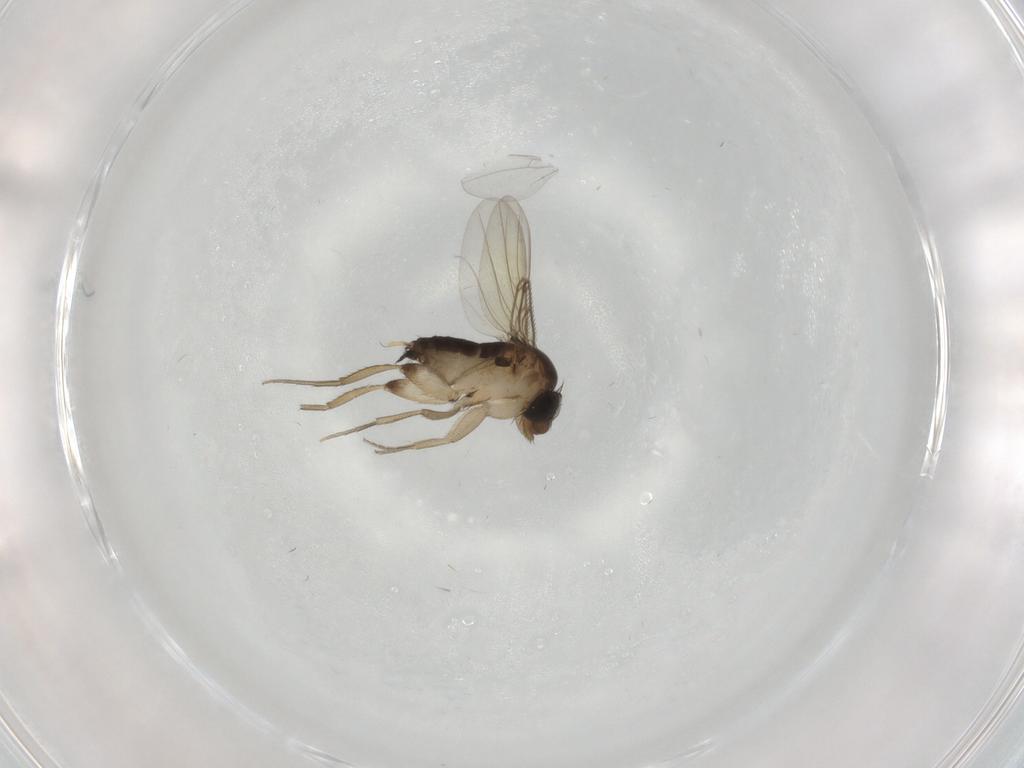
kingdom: Animalia
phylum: Arthropoda
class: Insecta
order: Diptera
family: Phoridae
